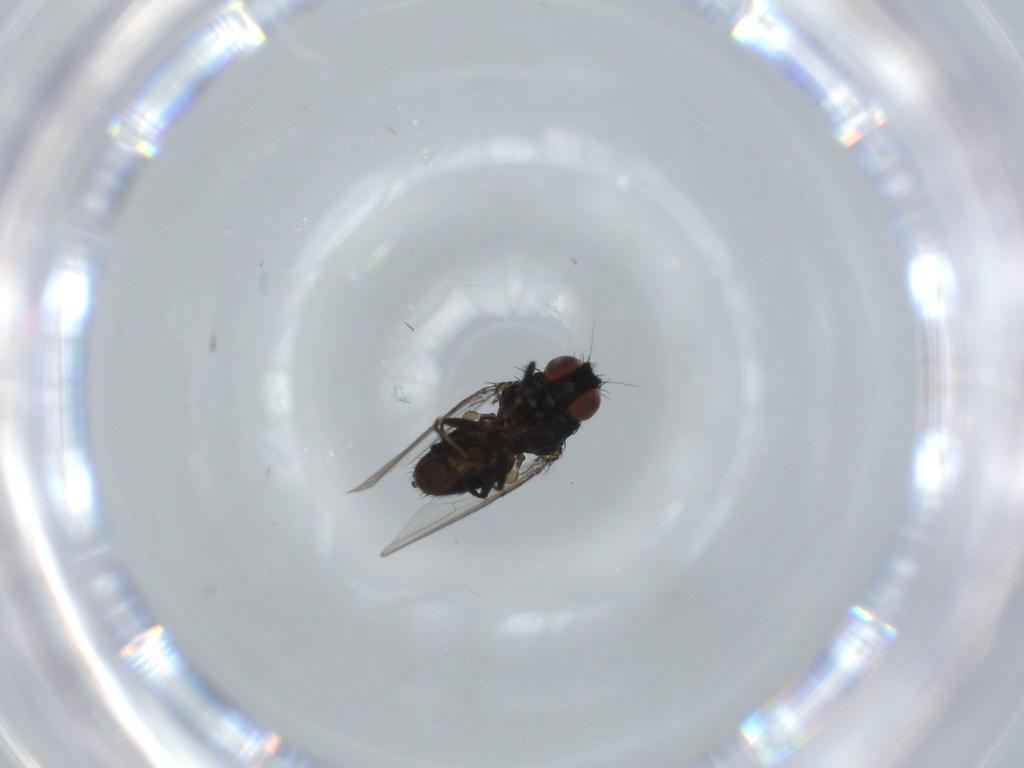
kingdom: Animalia
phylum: Arthropoda
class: Insecta
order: Diptera
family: Milichiidae
